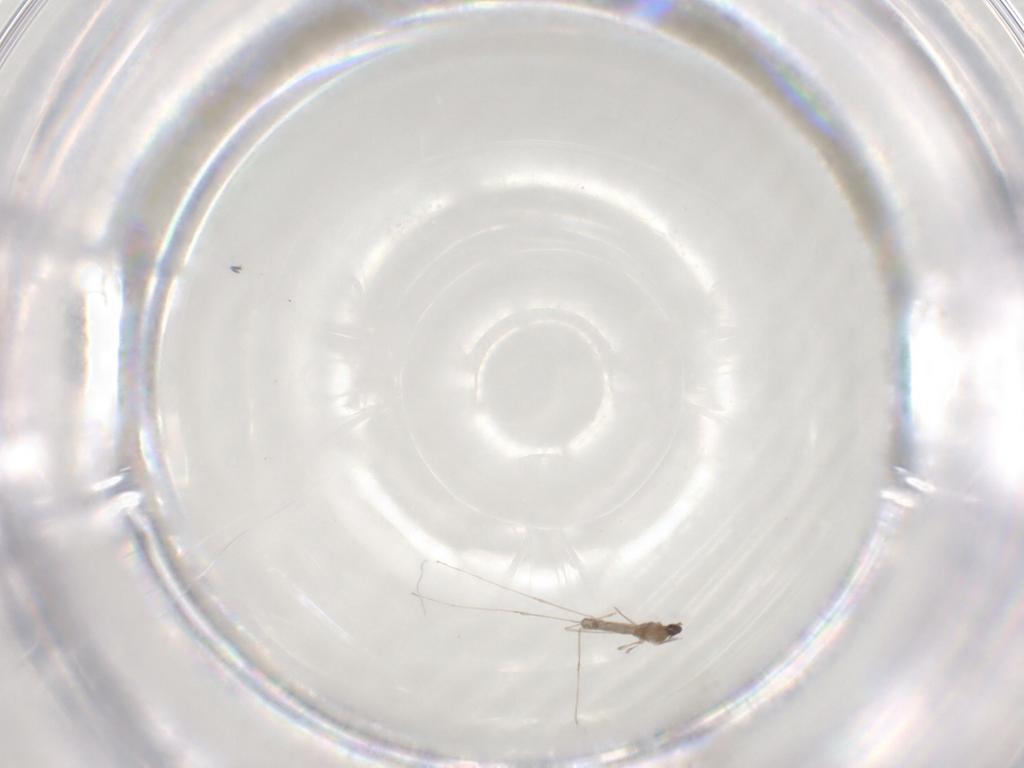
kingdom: Animalia
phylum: Arthropoda
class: Insecta
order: Diptera
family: Cecidomyiidae
